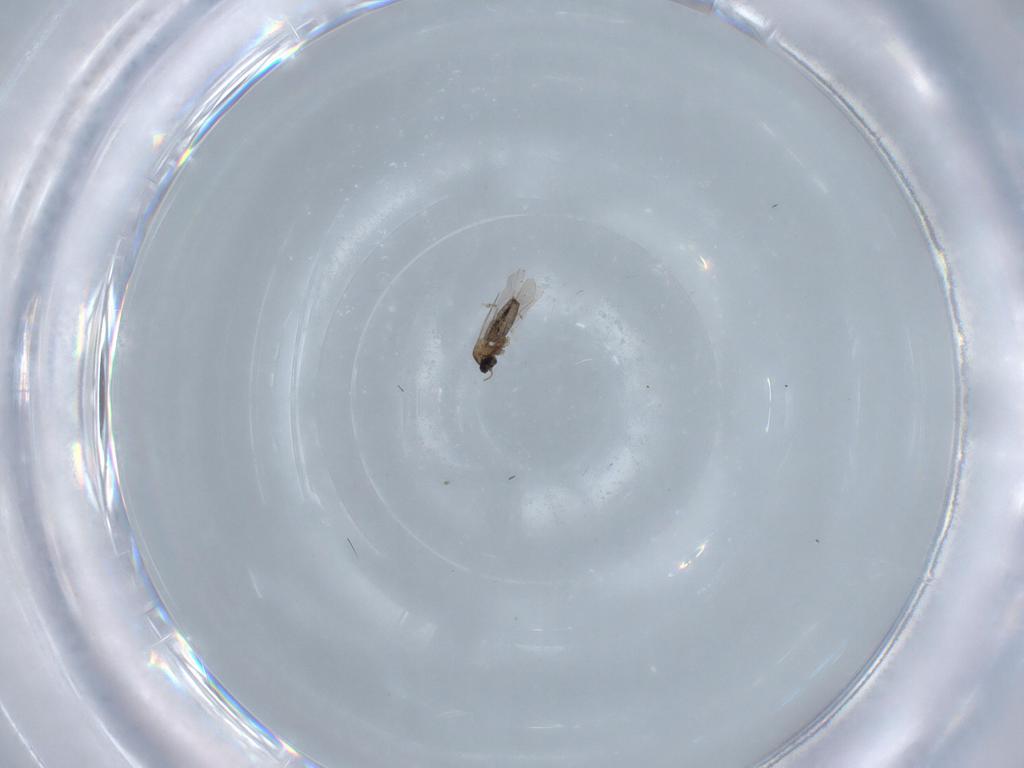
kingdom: Animalia
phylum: Arthropoda
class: Insecta
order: Diptera
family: Cecidomyiidae
